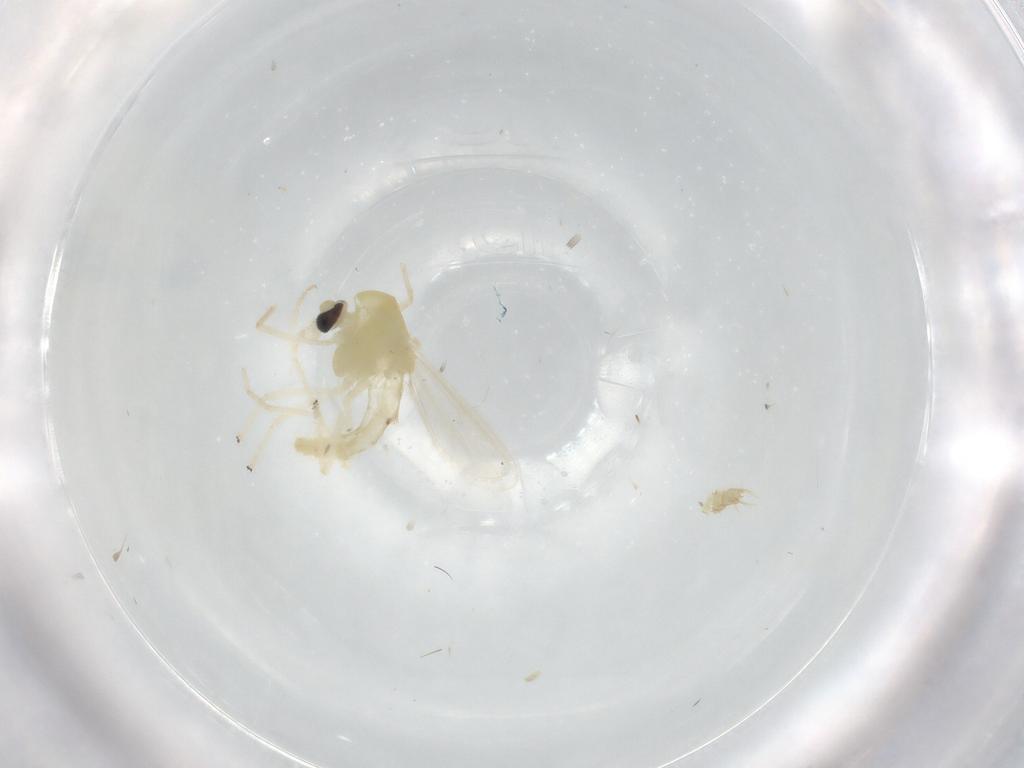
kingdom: Animalia
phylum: Arthropoda
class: Insecta
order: Diptera
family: Chironomidae
